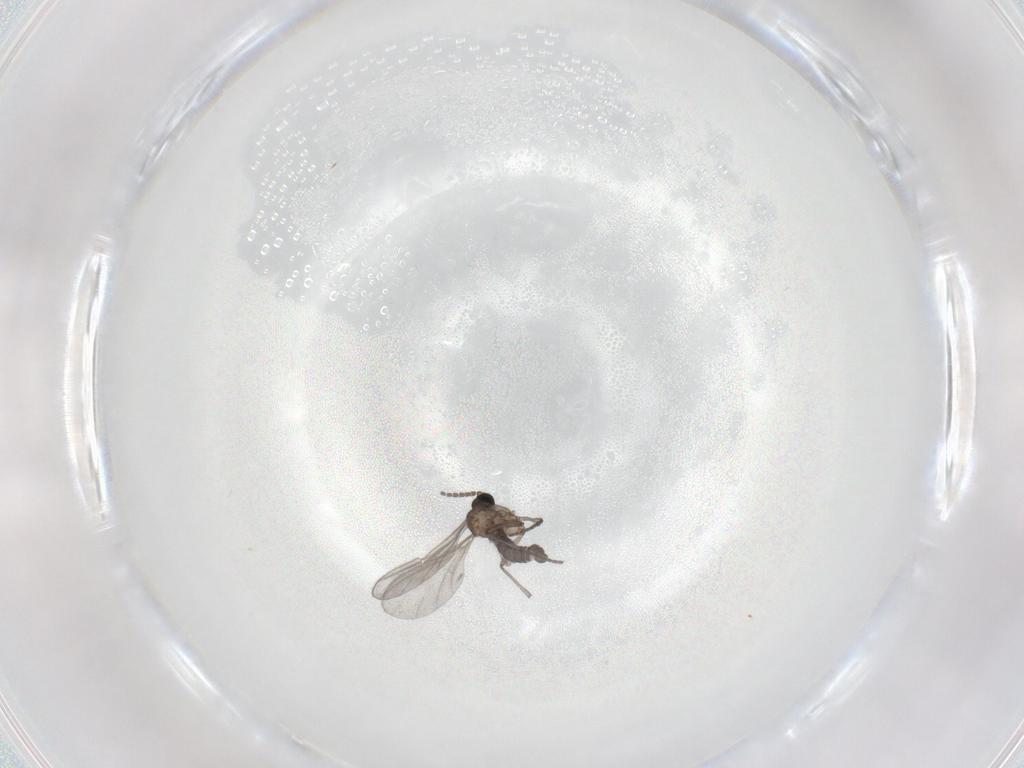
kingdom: Animalia
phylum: Arthropoda
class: Insecta
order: Diptera
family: Sciaridae
